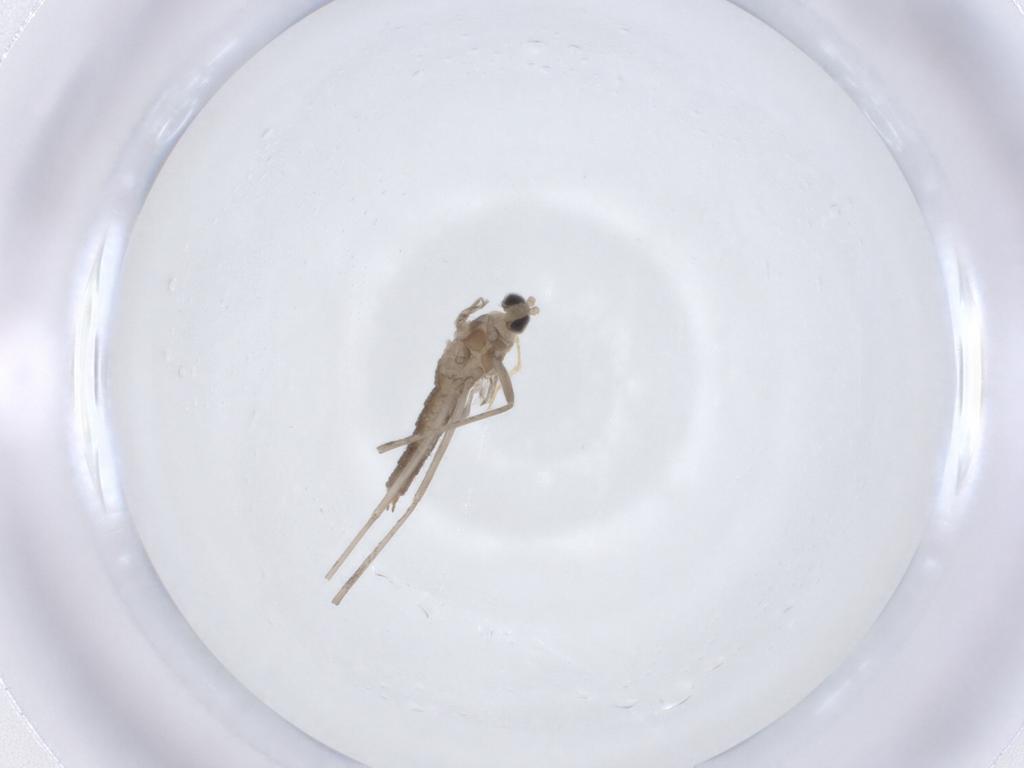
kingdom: Animalia
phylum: Arthropoda
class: Insecta
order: Diptera
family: Cecidomyiidae
